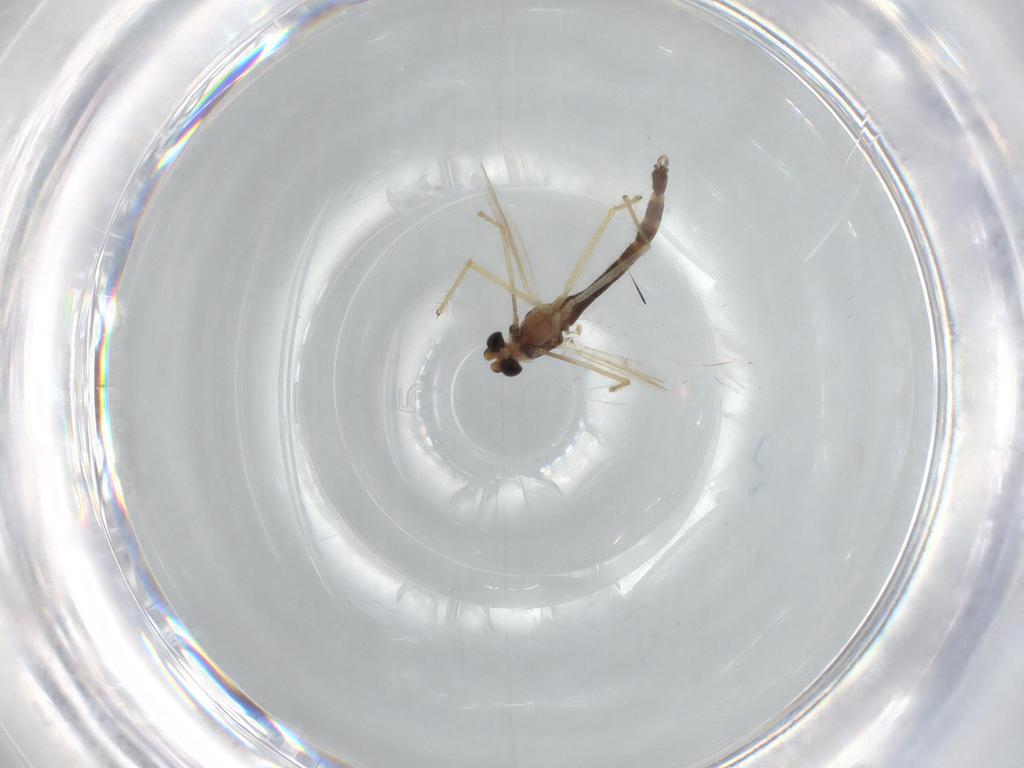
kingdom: Animalia
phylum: Arthropoda
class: Insecta
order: Diptera
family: Chironomidae
